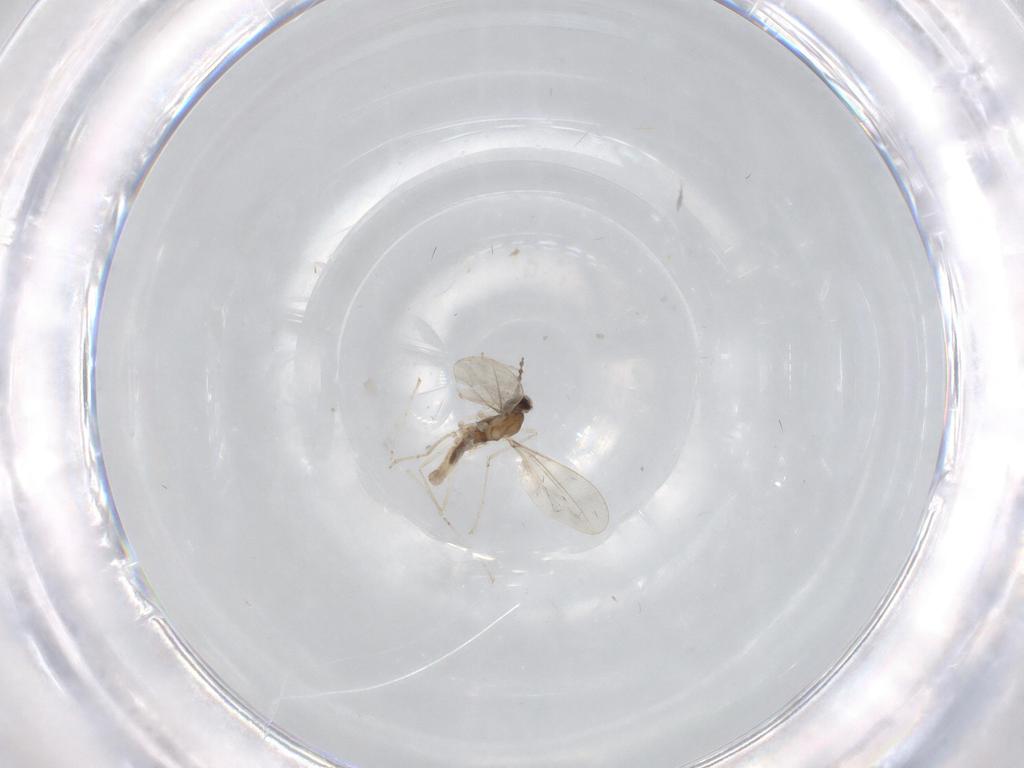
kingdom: Animalia
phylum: Arthropoda
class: Insecta
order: Diptera
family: Cecidomyiidae
